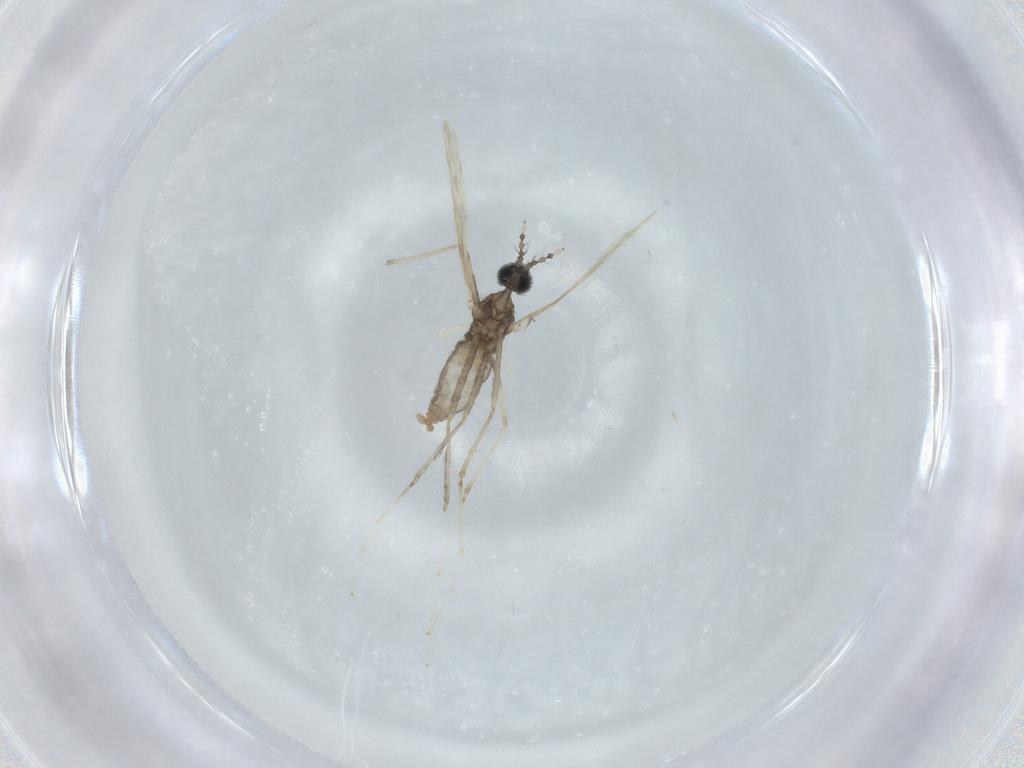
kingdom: Animalia
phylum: Arthropoda
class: Insecta
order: Diptera
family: Cecidomyiidae
